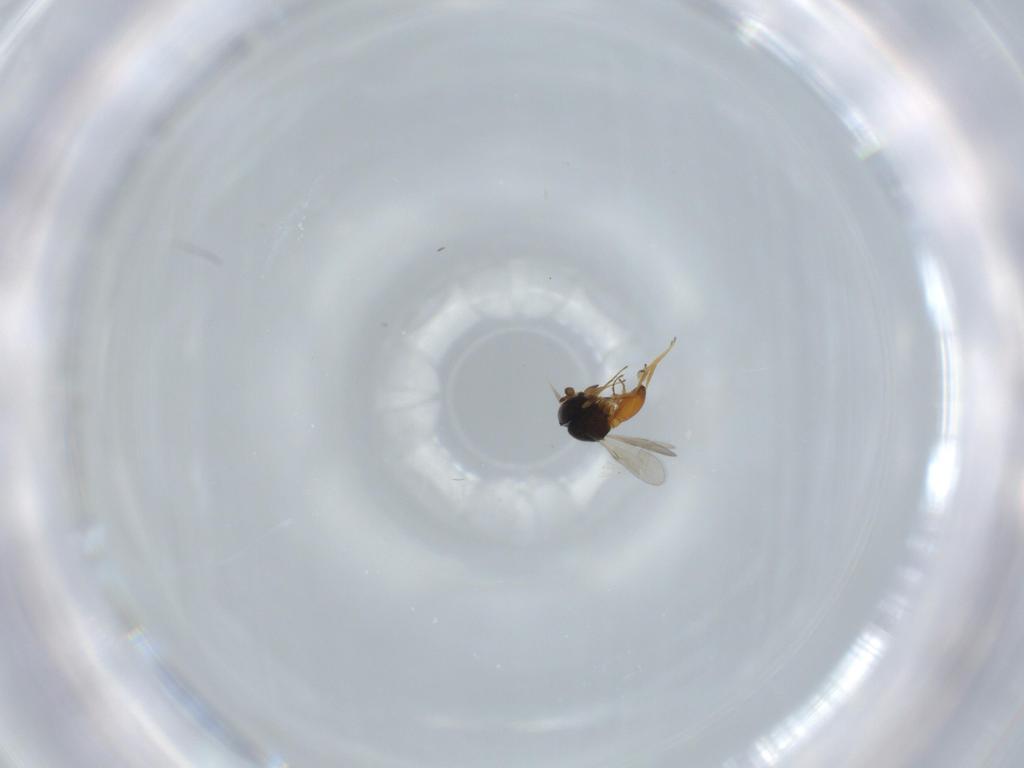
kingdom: Animalia
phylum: Arthropoda
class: Insecta
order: Hymenoptera
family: Scelionidae
